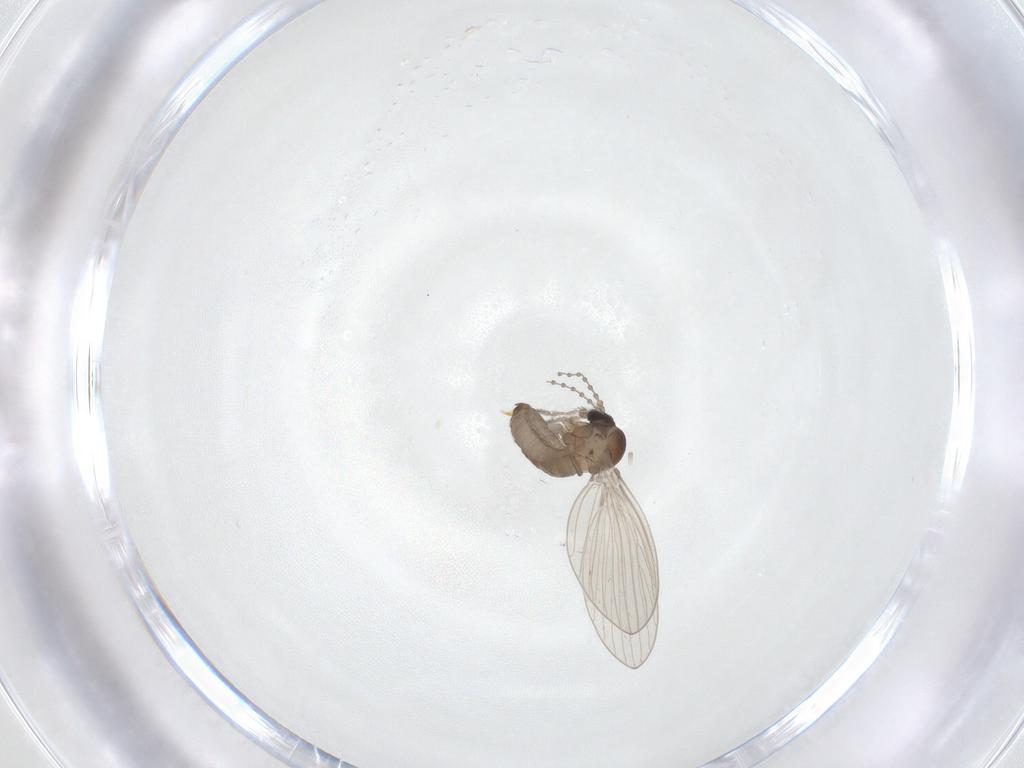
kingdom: Animalia
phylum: Arthropoda
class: Insecta
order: Diptera
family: Psychodidae
